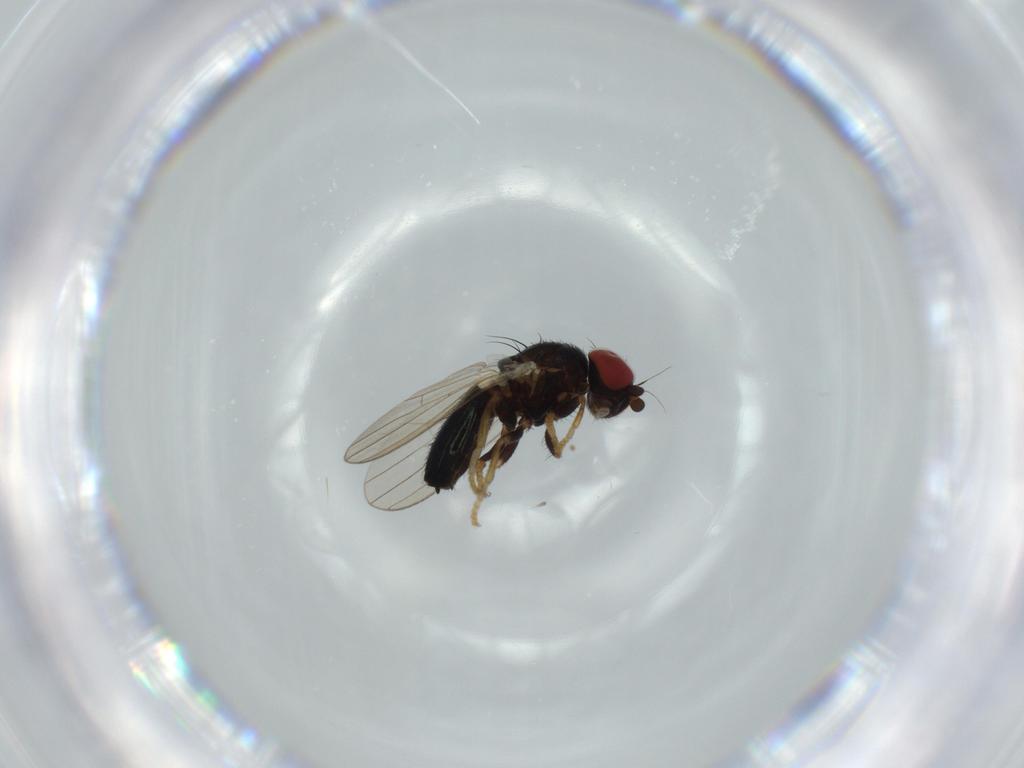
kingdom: Animalia
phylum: Arthropoda
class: Insecta
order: Diptera
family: Chamaemyiidae
